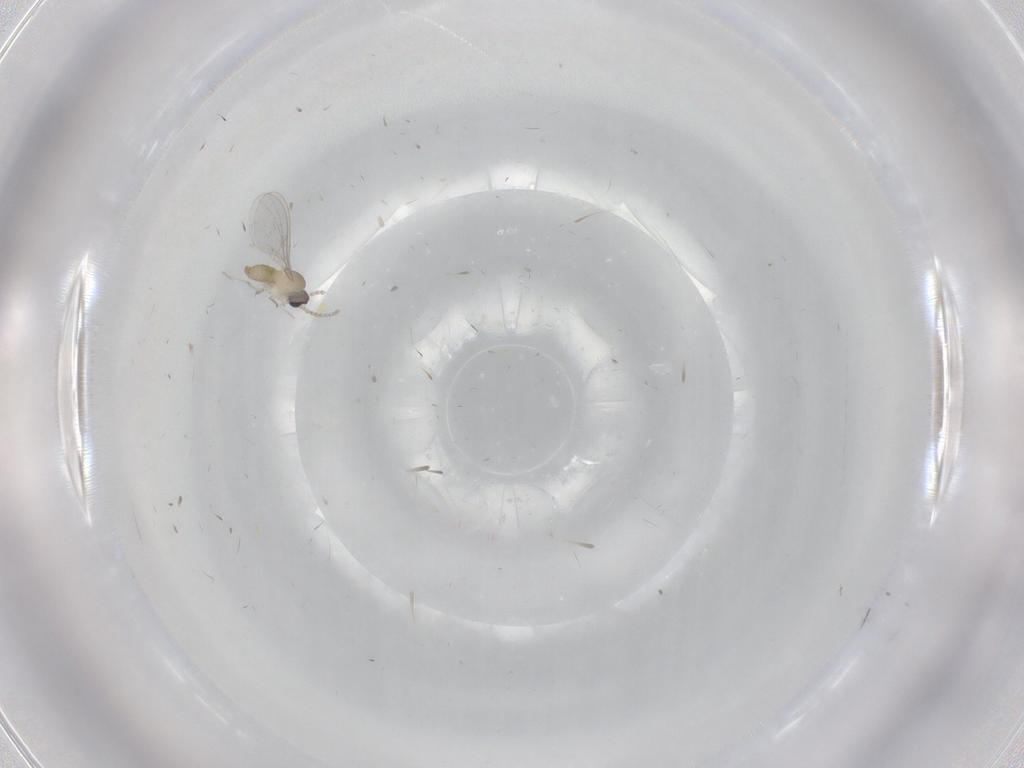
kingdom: Animalia
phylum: Arthropoda
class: Insecta
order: Diptera
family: Cecidomyiidae
